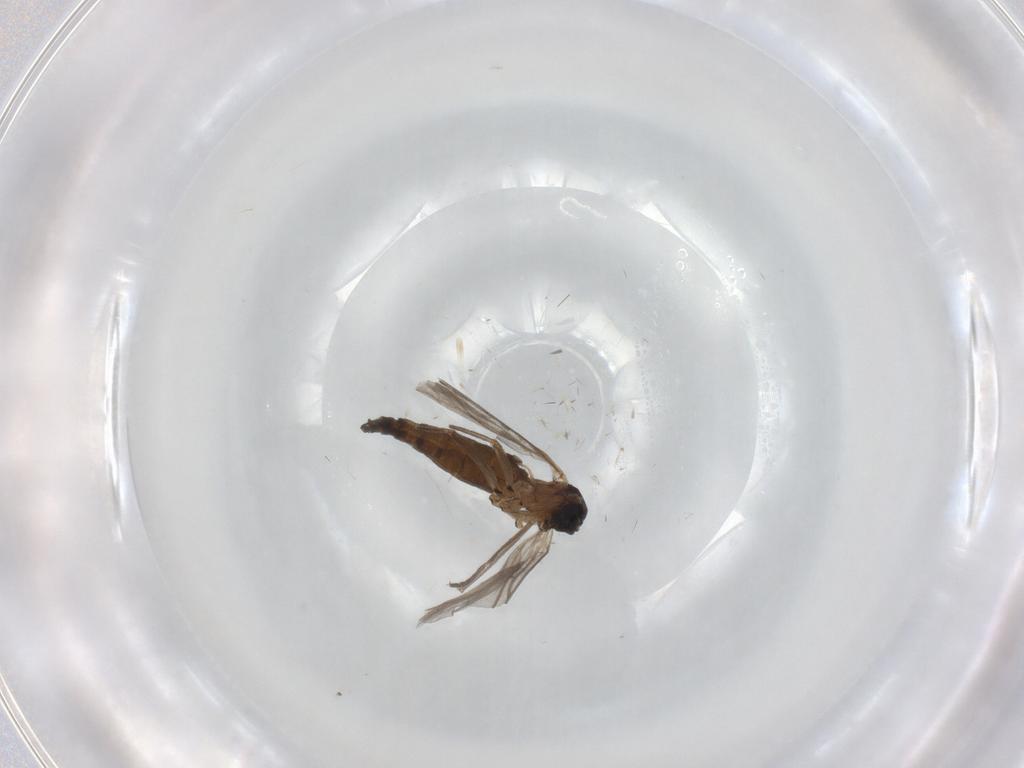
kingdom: Animalia
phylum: Arthropoda
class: Insecta
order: Diptera
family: Sciaridae
